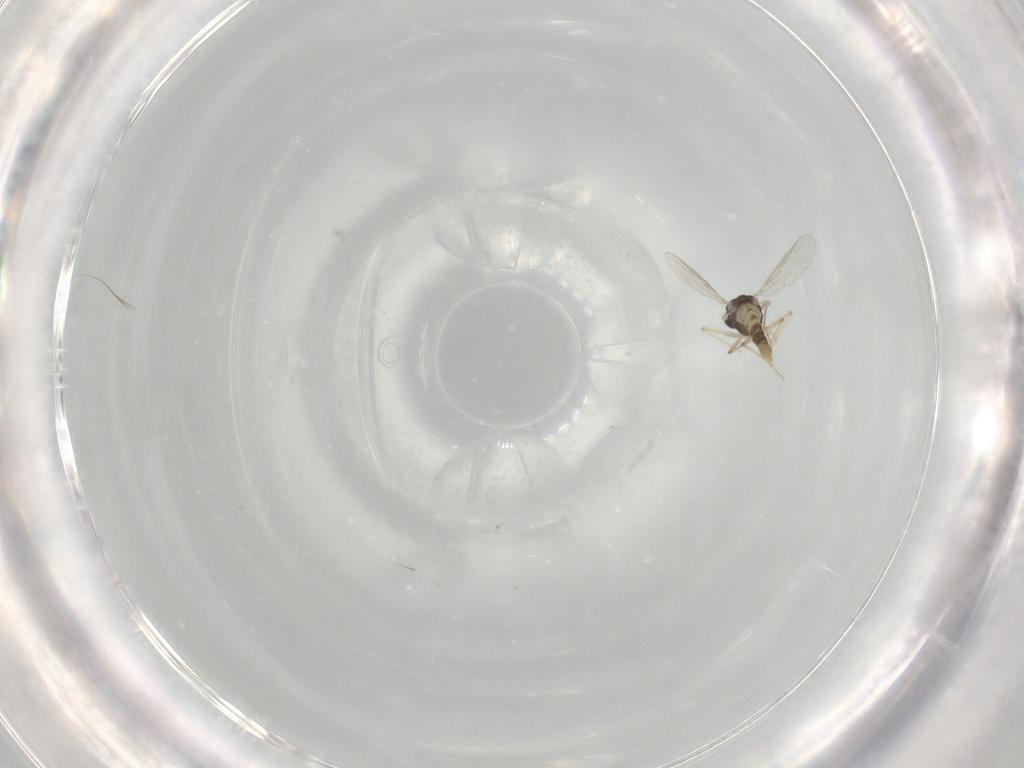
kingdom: Animalia
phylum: Arthropoda
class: Insecta
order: Diptera
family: Chironomidae
